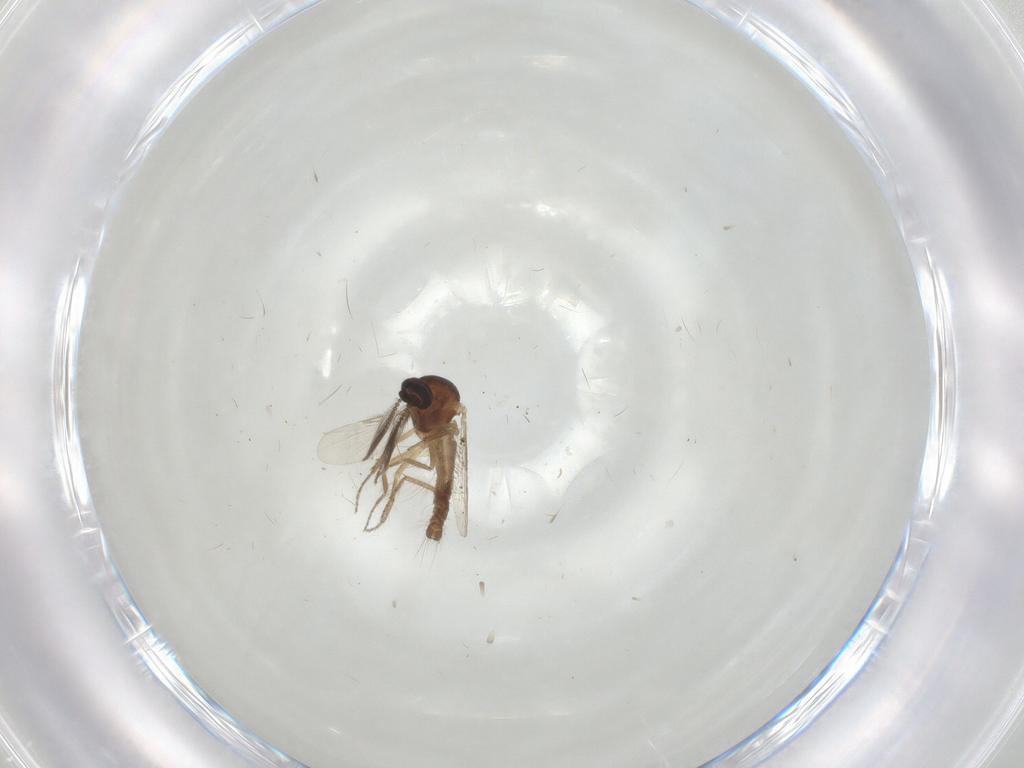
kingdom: Animalia
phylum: Arthropoda
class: Insecta
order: Diptera
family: Ceratopogonidae
